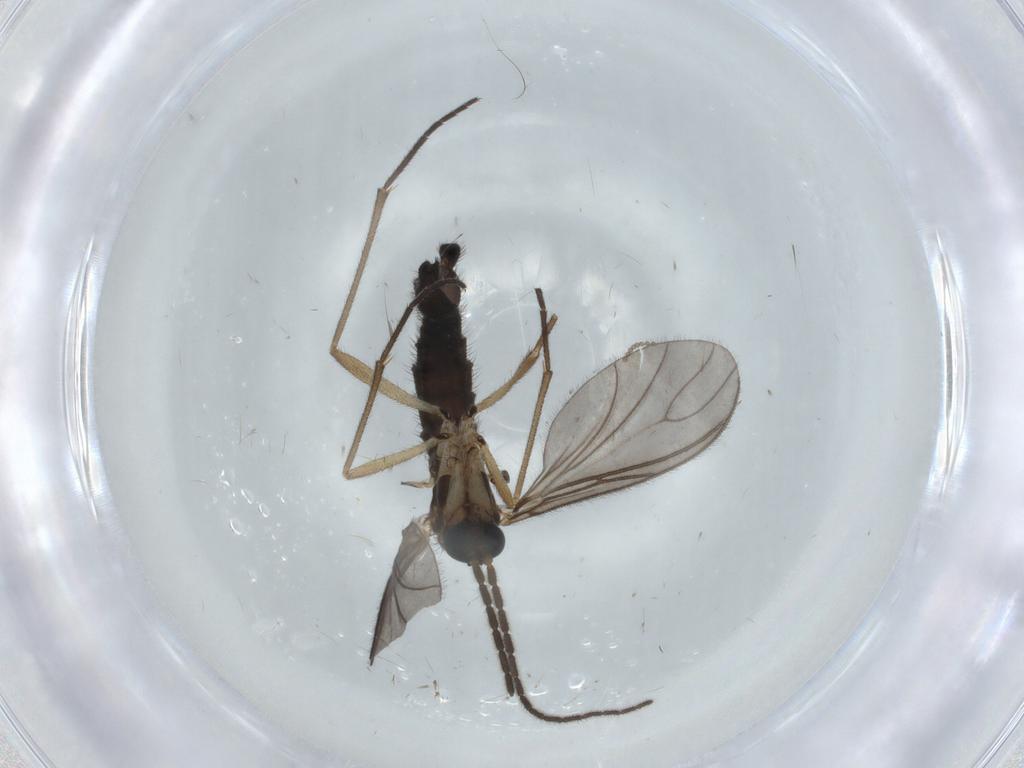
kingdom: Animalia
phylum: Arthropoda
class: Insecta
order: Diptera
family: Sciaridae
